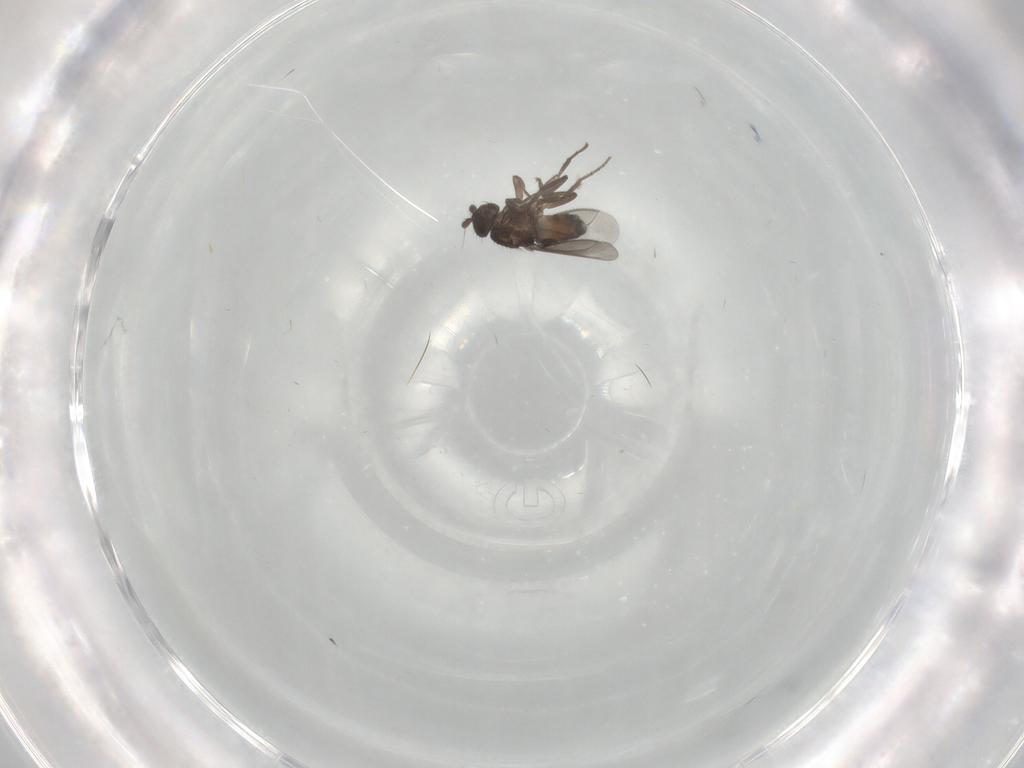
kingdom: Animalia
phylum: Arthropoda
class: Insecta
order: Diptera
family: Sphaeroceridae
